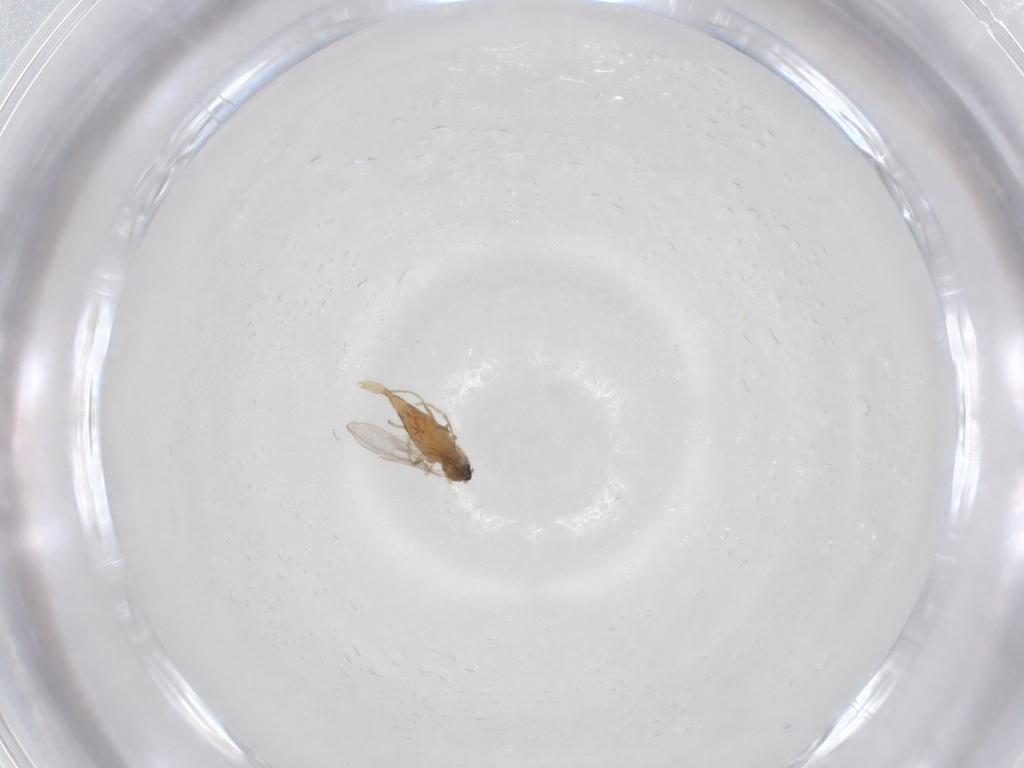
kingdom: Animalia
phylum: Arthropoda
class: Insecta
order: Diptera
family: Cecidomyiidae
